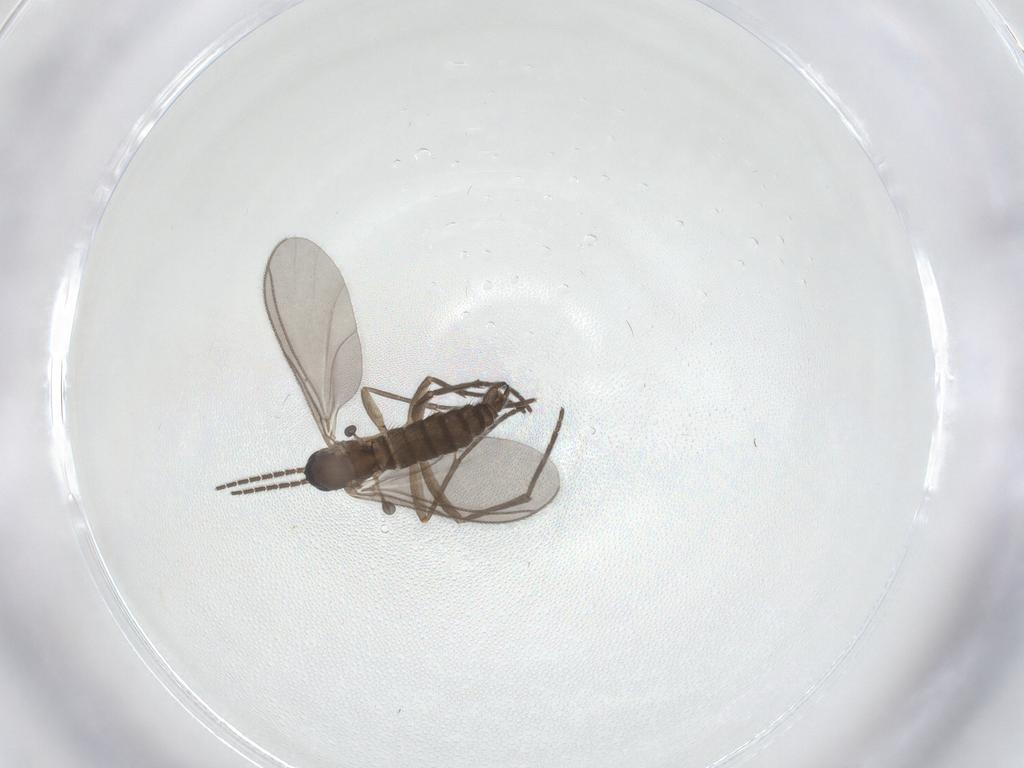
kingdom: Animalia
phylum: Arthropoda
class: Insecta
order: Diptera
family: Sciaridae
